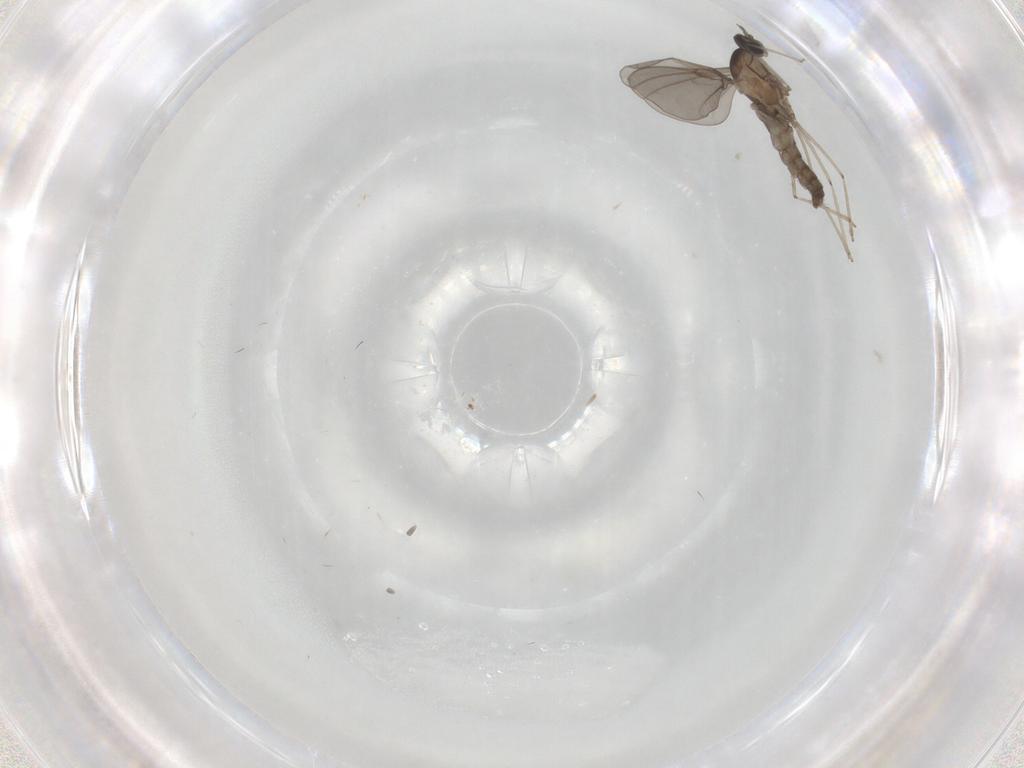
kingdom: Animalia
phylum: Arthropoda
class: Insecta
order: Diptera
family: Cecidomyiidae
